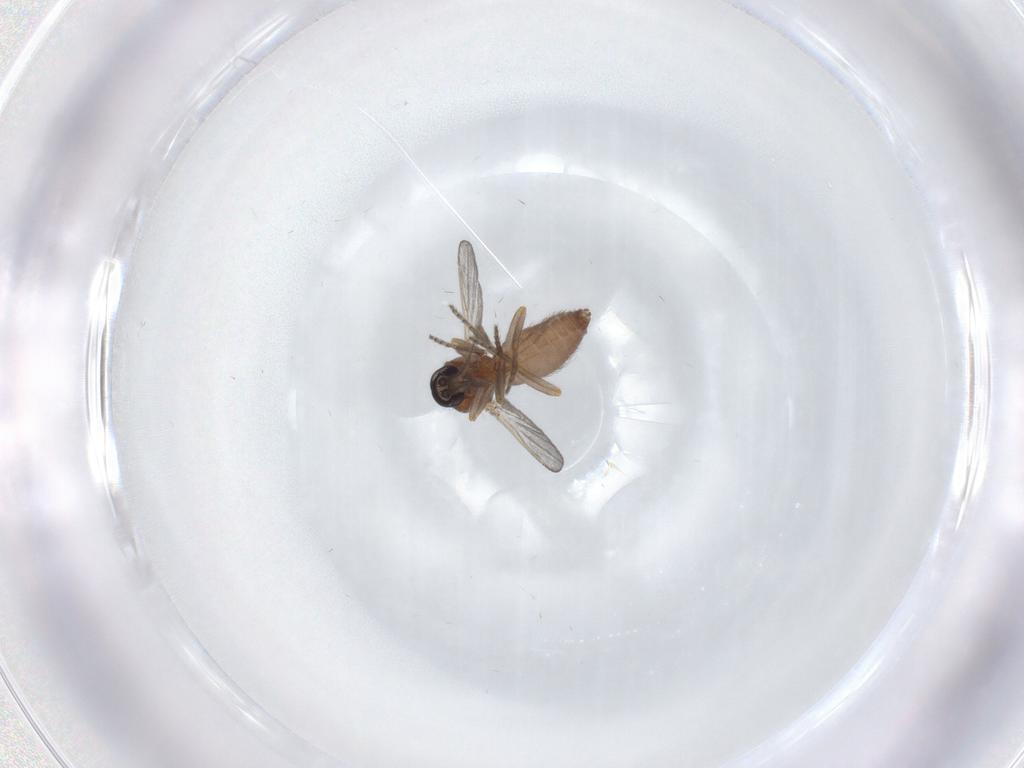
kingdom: Animalia
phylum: Arthropoda
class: Insecta
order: Diptera
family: Ceratopogonidae
